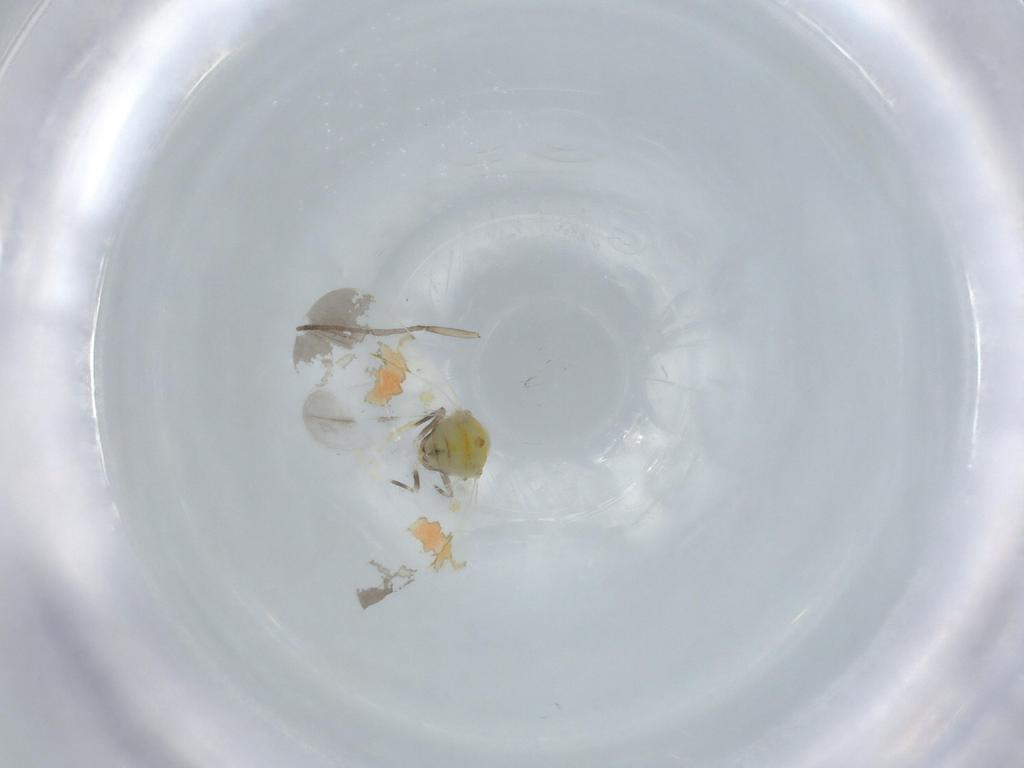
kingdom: Animalia
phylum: Arthropoda
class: Insecta
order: Hemiptera
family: Aleyrodidae
